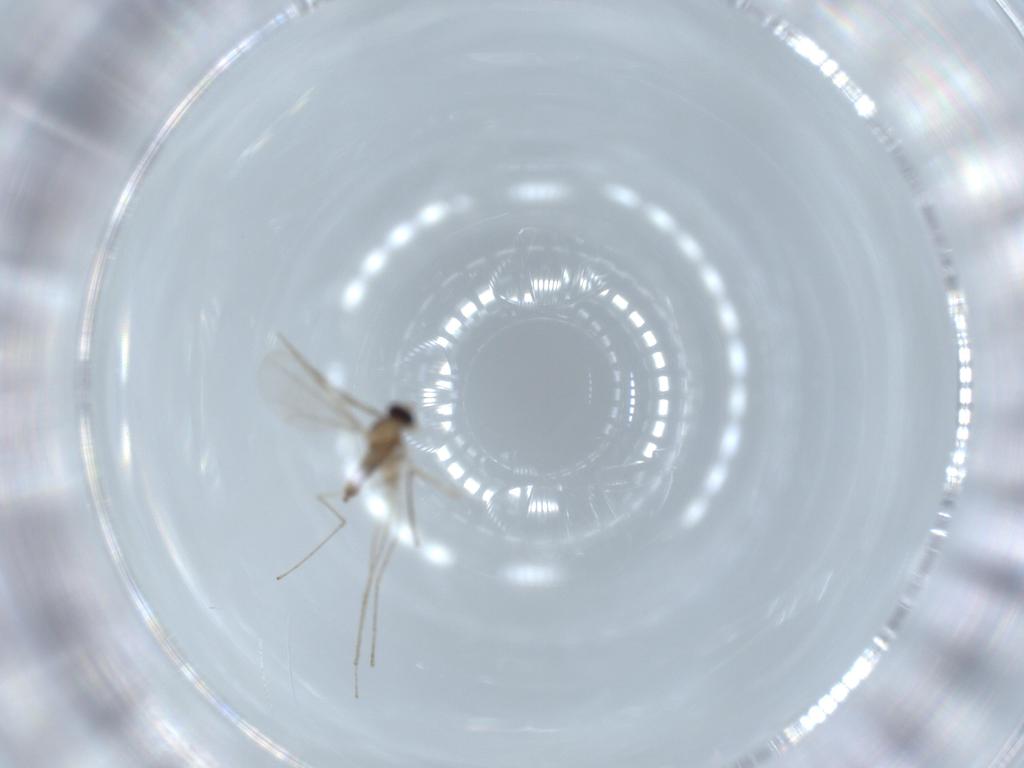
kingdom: Animalia
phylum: Arthropoda
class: Insecta
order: Diptera
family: Cecidomyiidae
